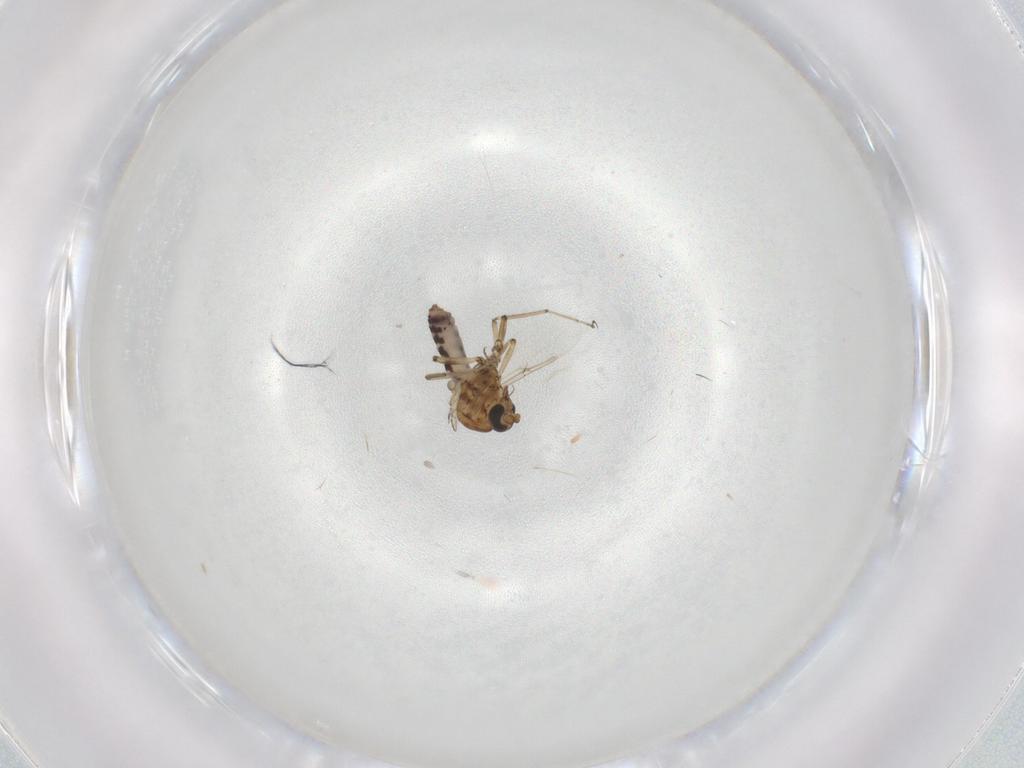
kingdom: Animalia
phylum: Arthropoda
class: Insecta
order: Diptera
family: Ceratopogonidae
